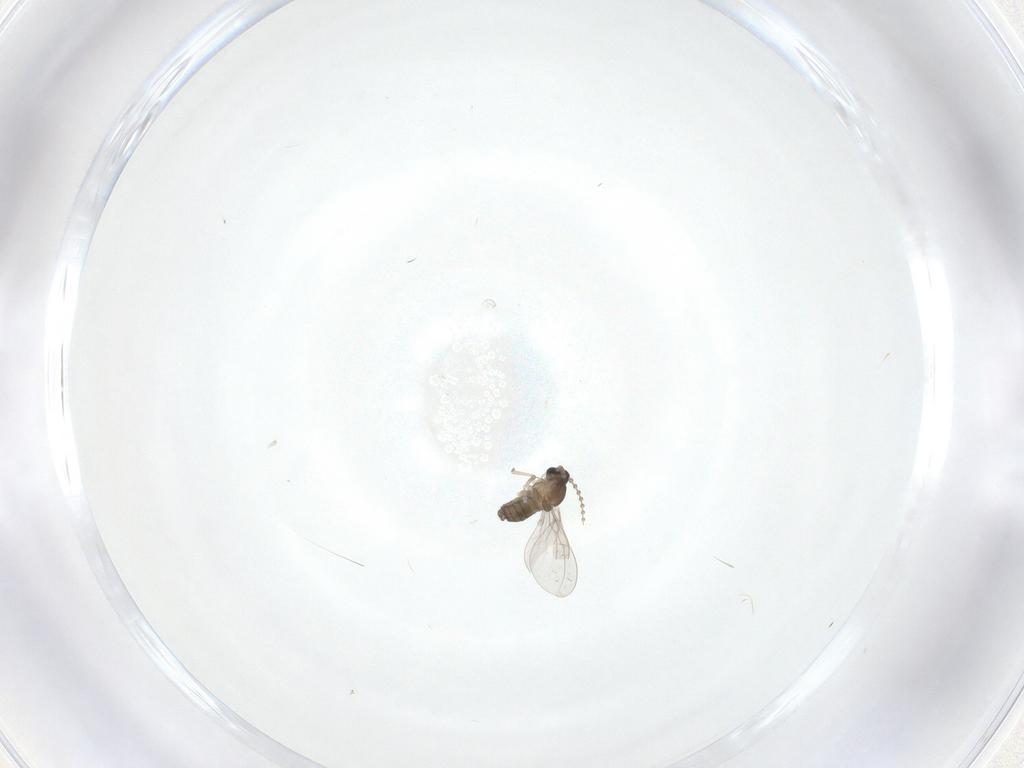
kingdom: Animalia
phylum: Arthropoda
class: Insecta
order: Diptera
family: Cecidomyiidae
